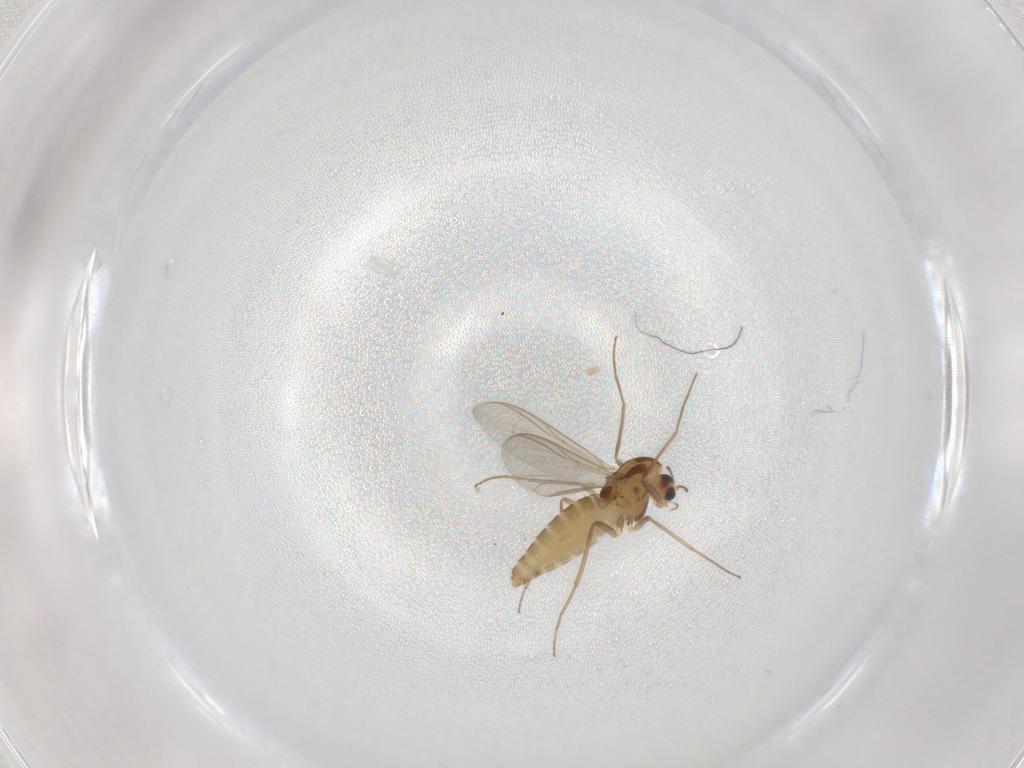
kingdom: Animalia
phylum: Arthropoda
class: Insecta
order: Diptera
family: Chironomidae
